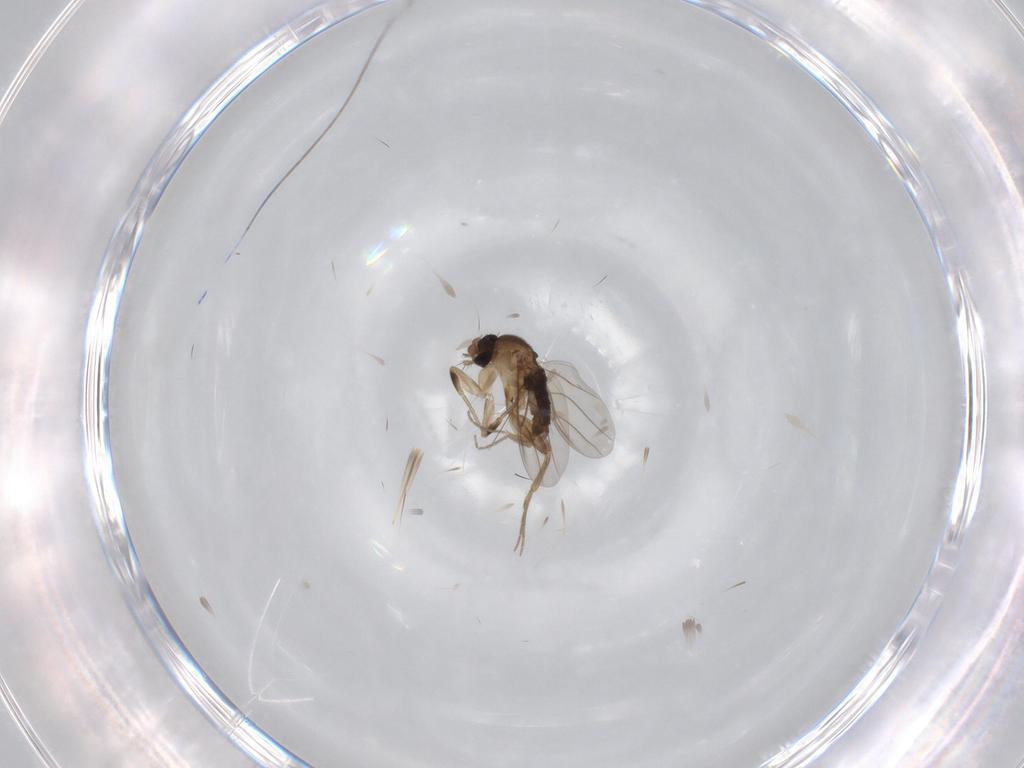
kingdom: Animalia
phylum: Arthropoda
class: Insecta
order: Diptera
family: Phoridae
